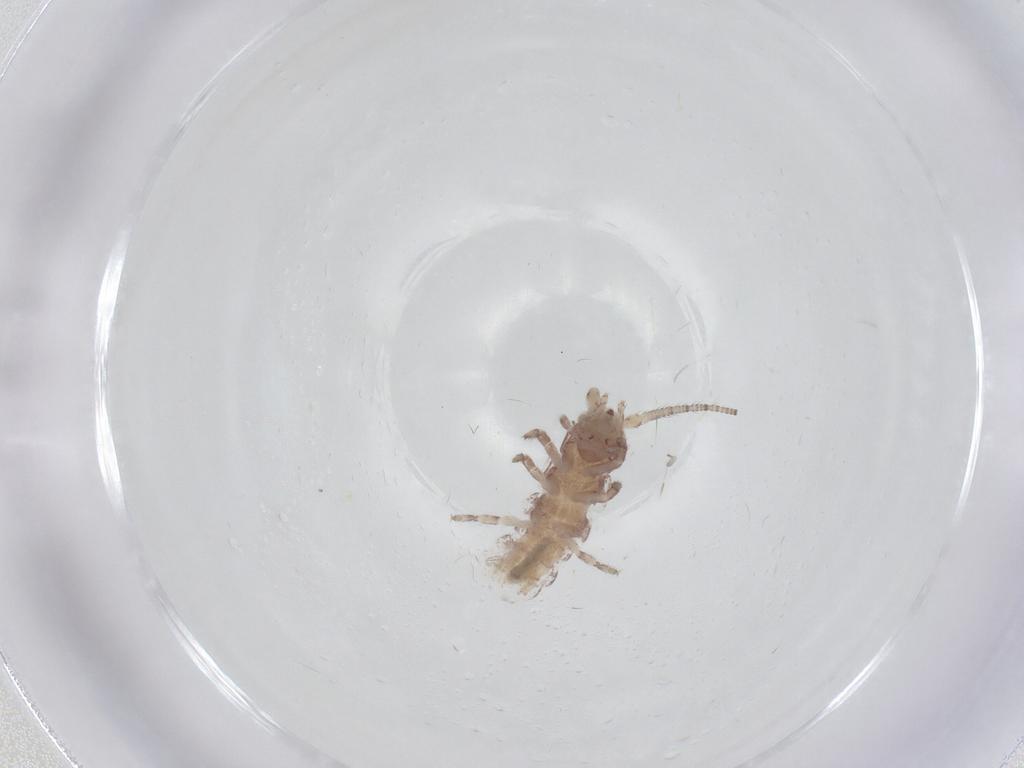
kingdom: Animalia
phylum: Arthropoda
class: Insecta
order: Archaeognatha
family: Machilidae
